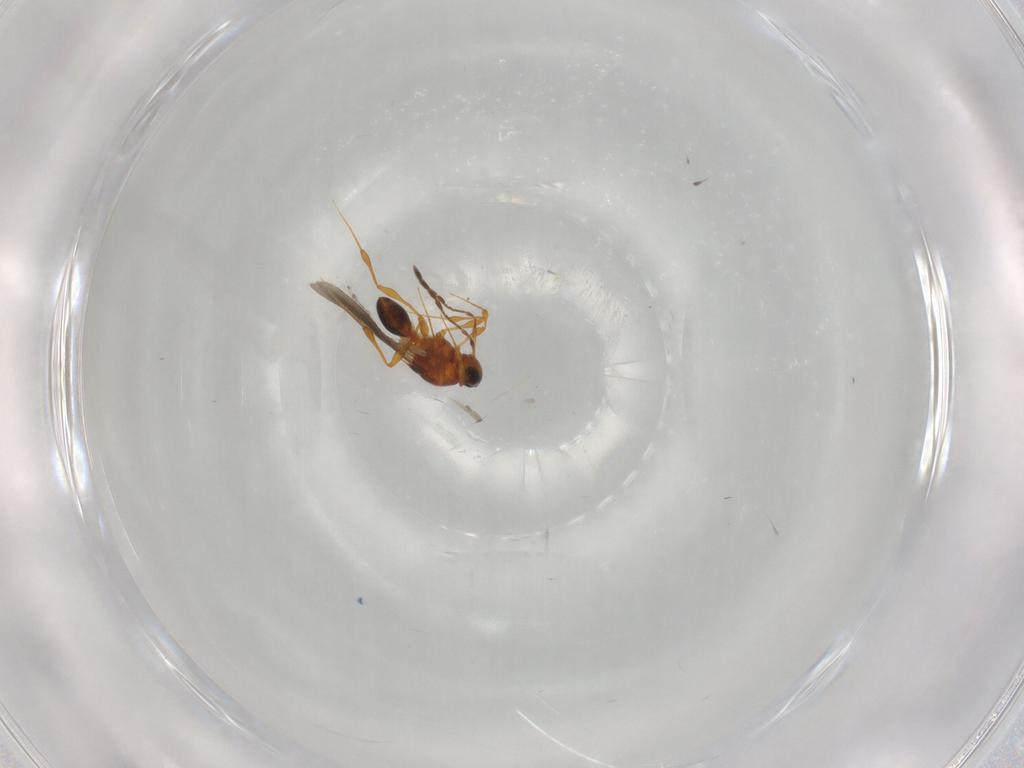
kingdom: Animalia
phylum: Arthropoda
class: Insecta
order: Hymenoptera
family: Platygastridae
